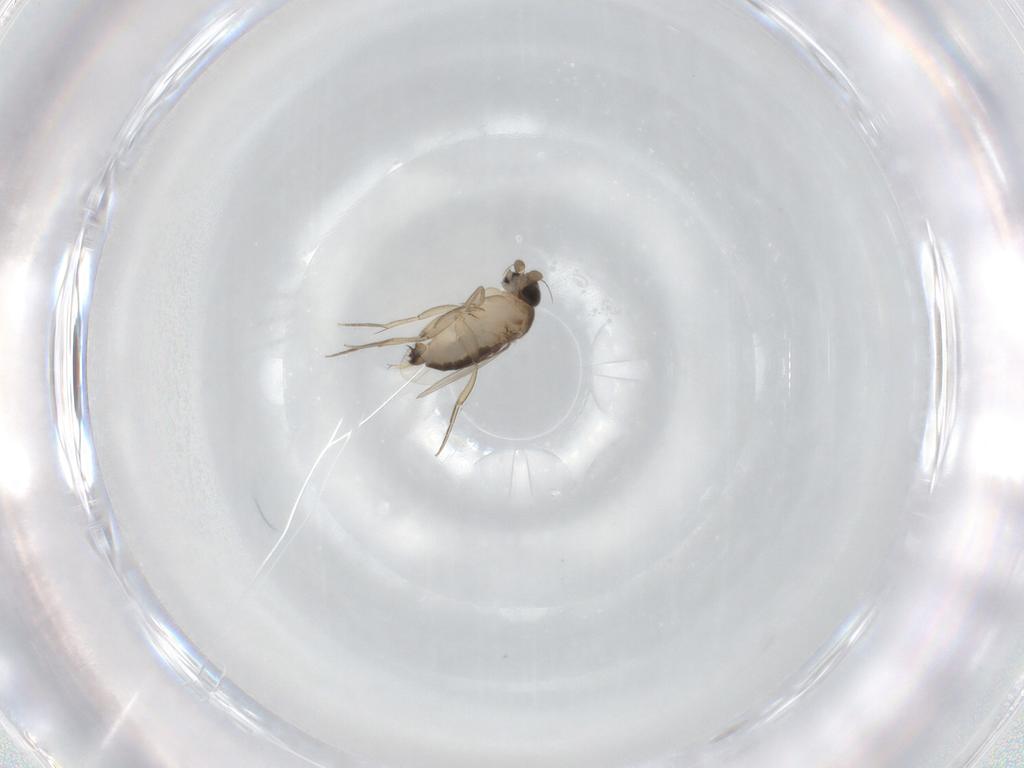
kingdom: Animalia
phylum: Arthropoda
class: Insecta
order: Diptera
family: Phoridae
